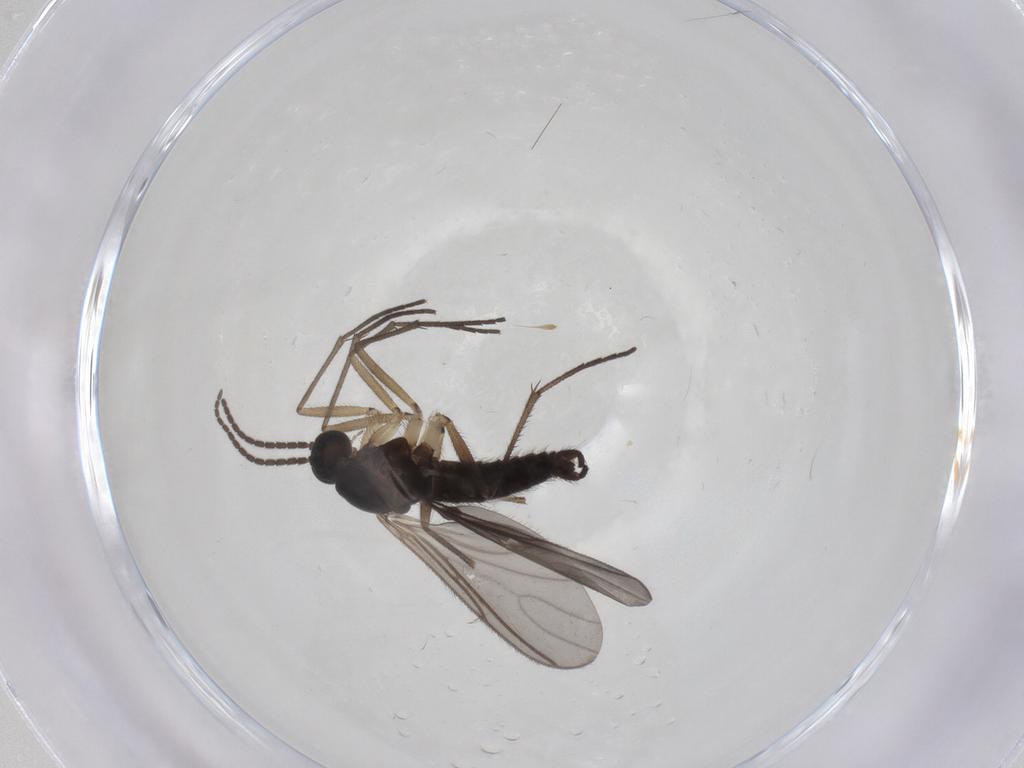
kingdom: Animalia
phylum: Arthropoda
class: Insecta
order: Diptera
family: Sciaridae
